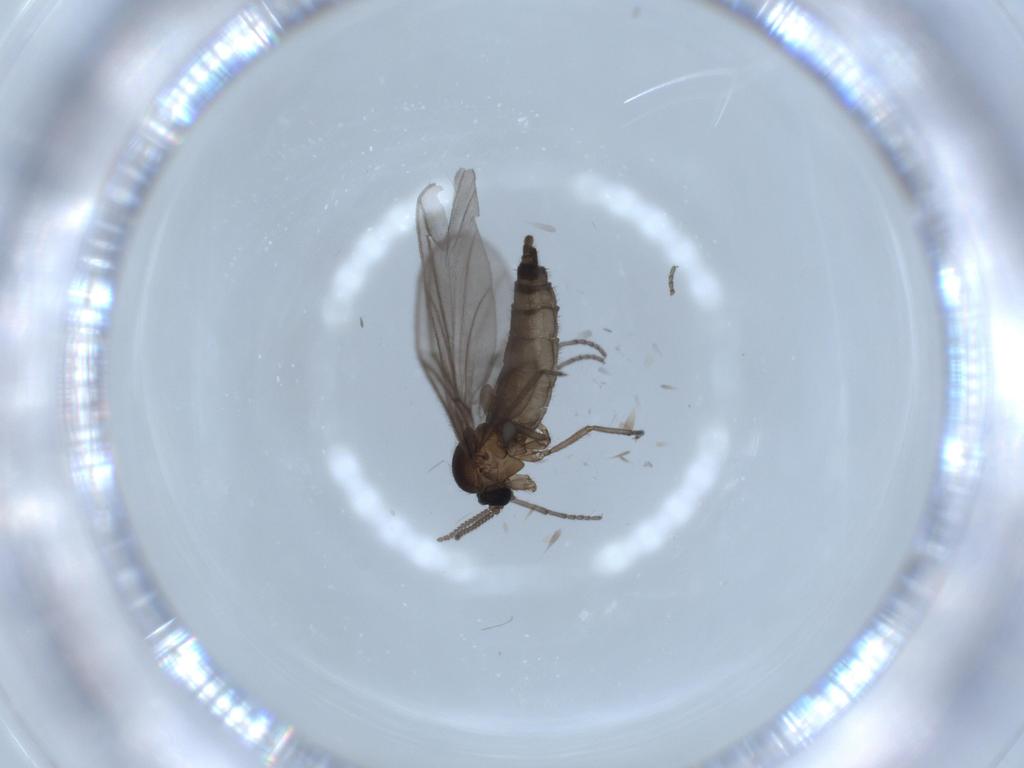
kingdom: Animalia
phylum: Arthropoda
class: Insecta
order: Diptera
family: Sciaridae
